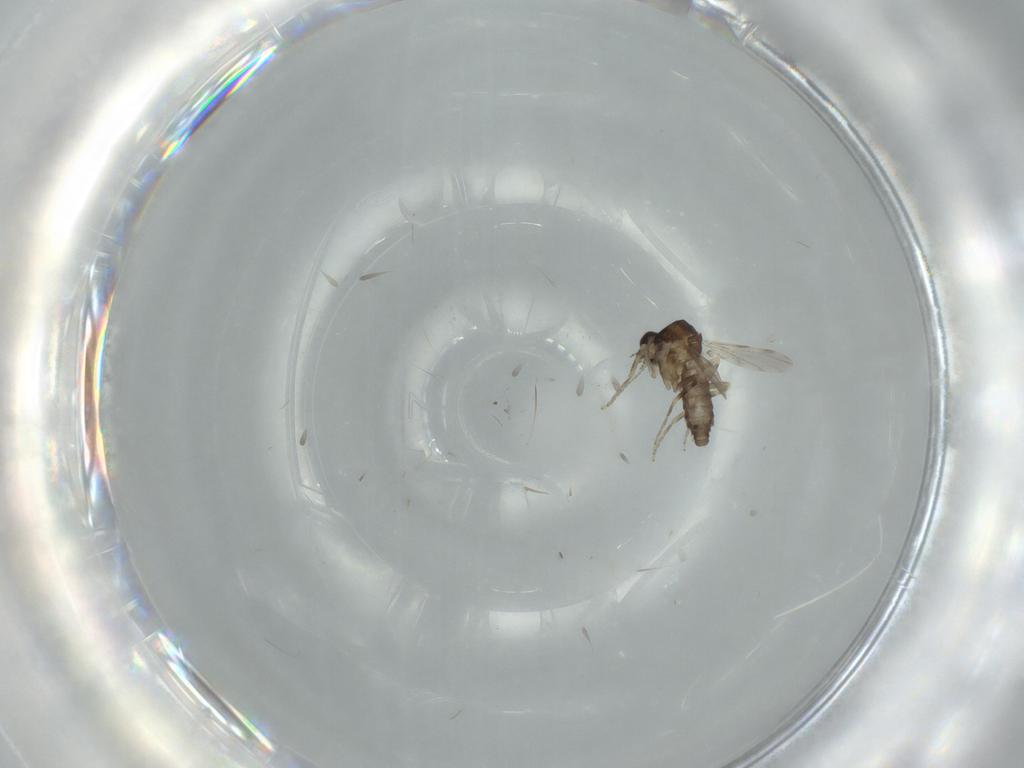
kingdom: Animalia
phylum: Arthropoda
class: Insecta
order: Diptera
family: Ceratopogonidae
